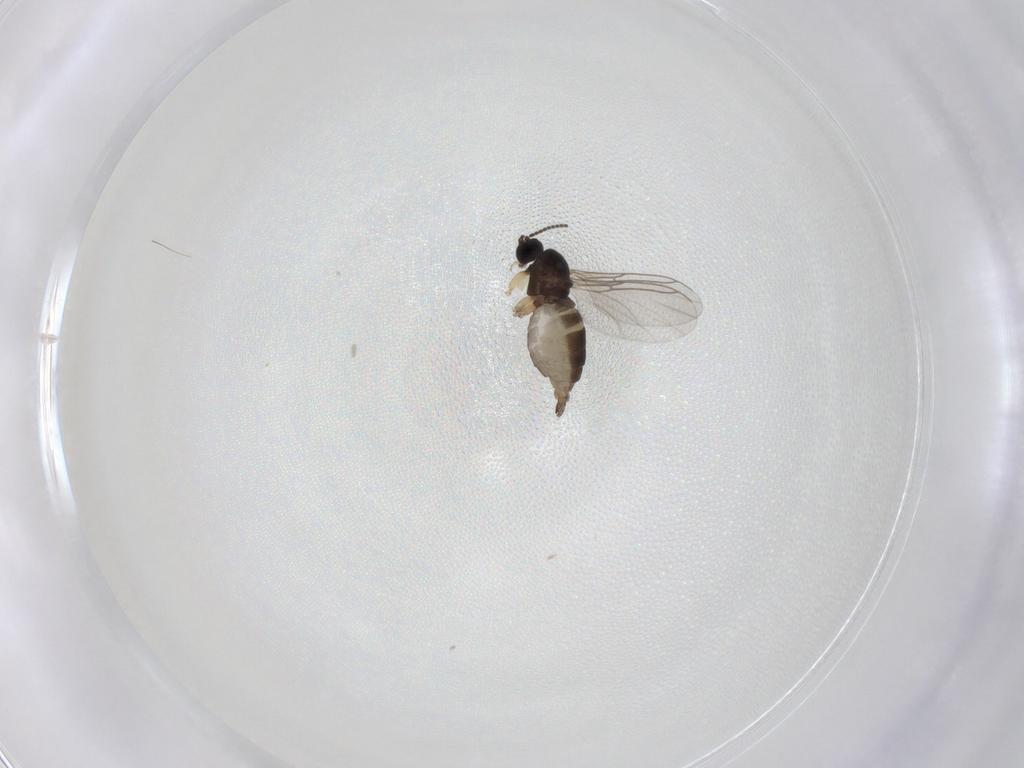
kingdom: Animalia
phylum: Arthropoda
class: Insecta
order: Diptera
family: Sciaridae
